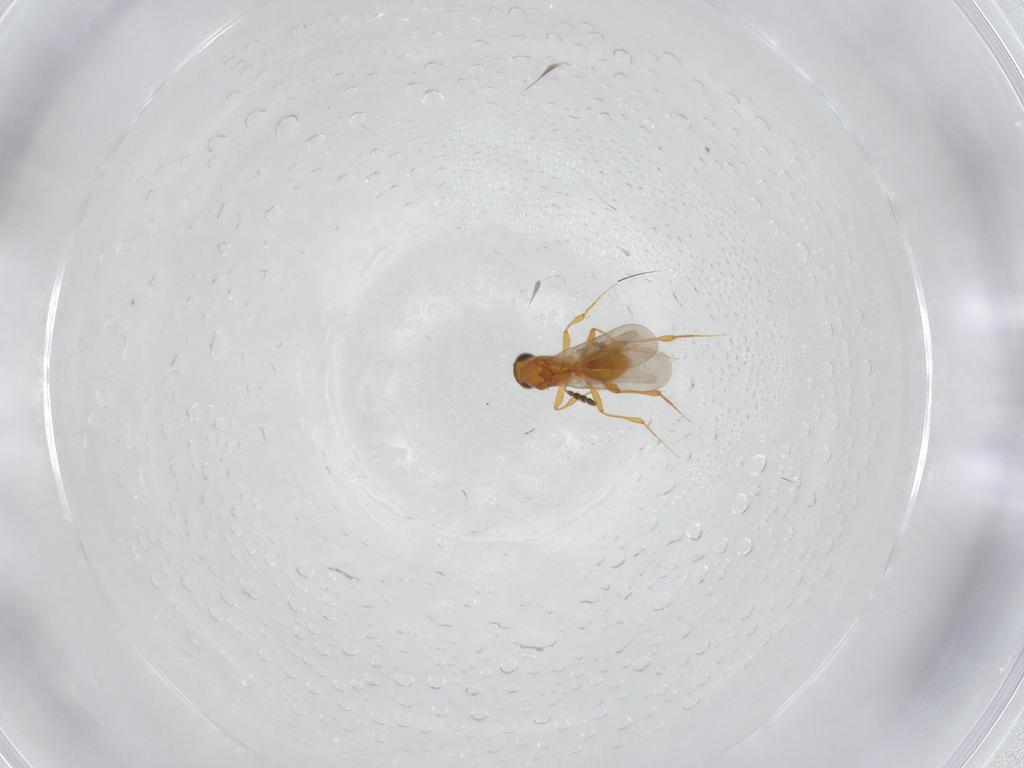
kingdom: Animalia
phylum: Arthropoda
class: Insecta
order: Hymenoptera
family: Platygastridae
